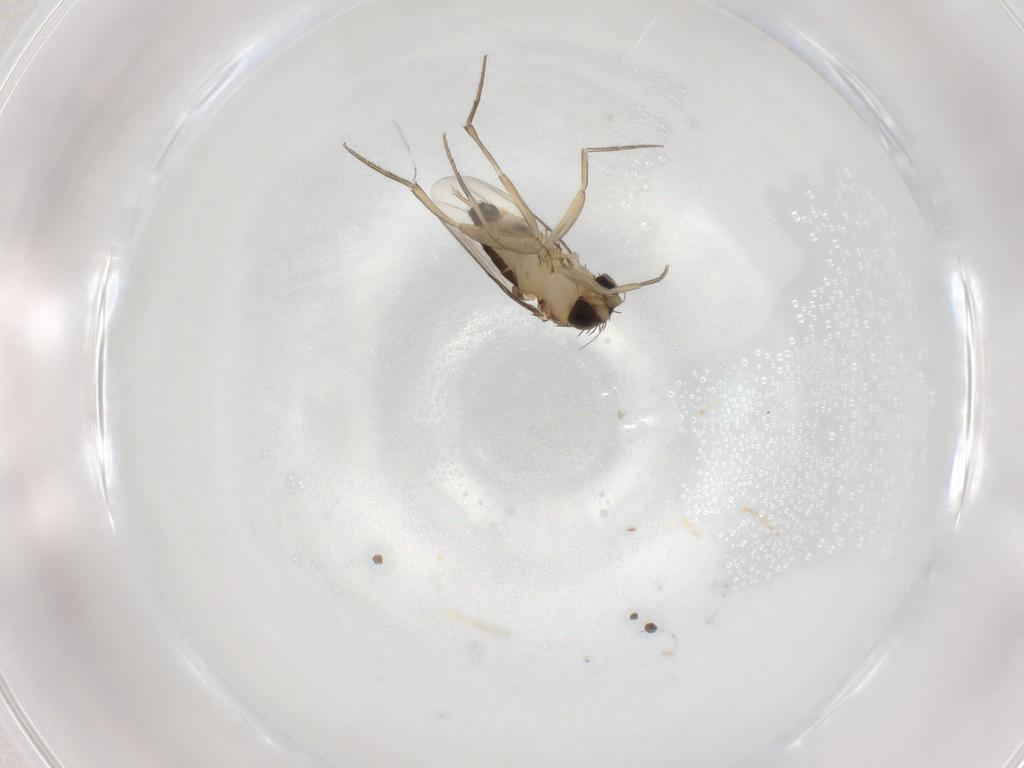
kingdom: Animalia
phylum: Arthropoda
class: Insecta
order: Diptera
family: Phoridae
